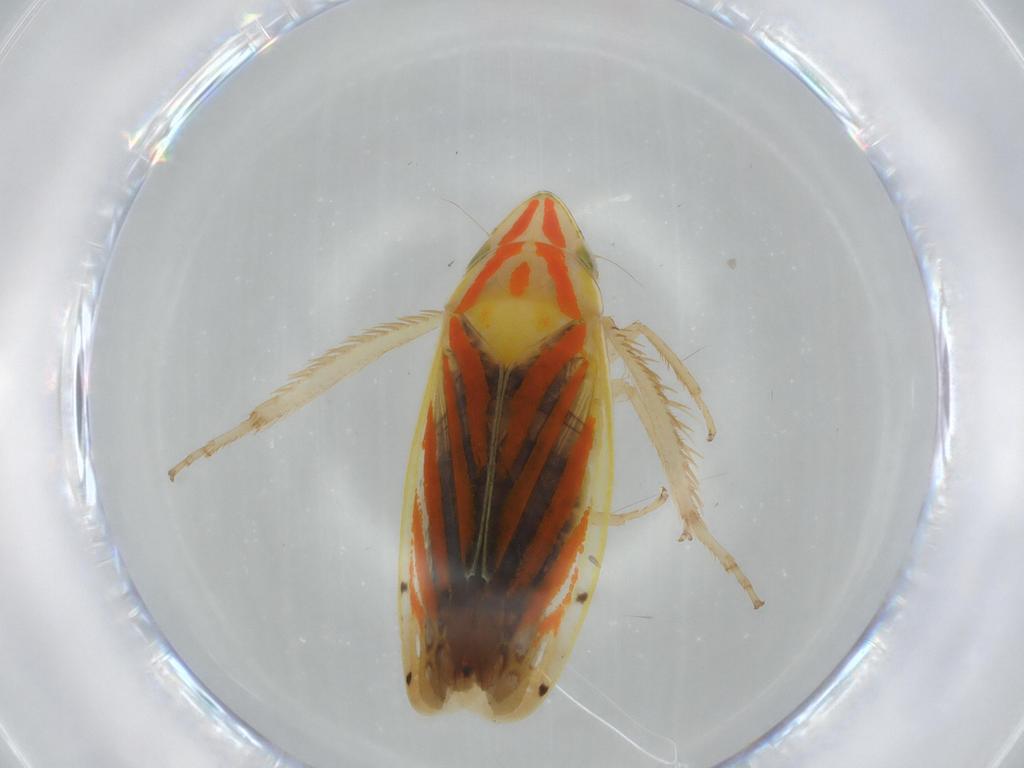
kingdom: Animalia
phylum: Arthropoda
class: Insecta
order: Hemiptera
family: Cicadellidae
